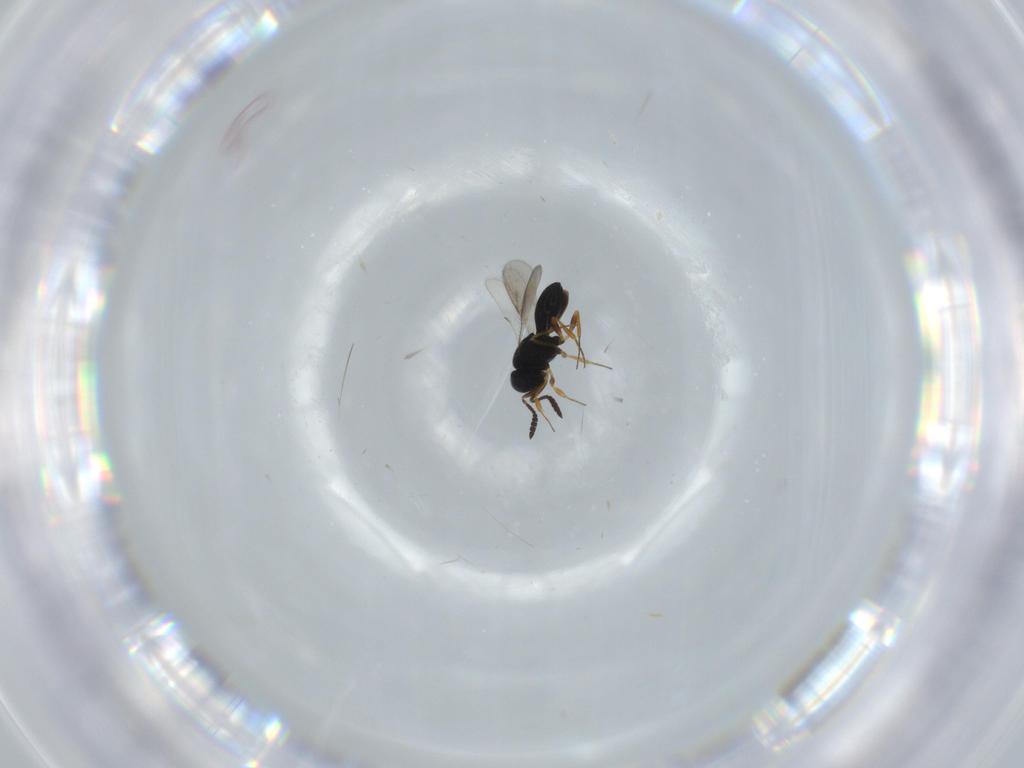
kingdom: Animalia
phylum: Arthropoda
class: Insecta
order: Hymenoptera
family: Scelionidae
